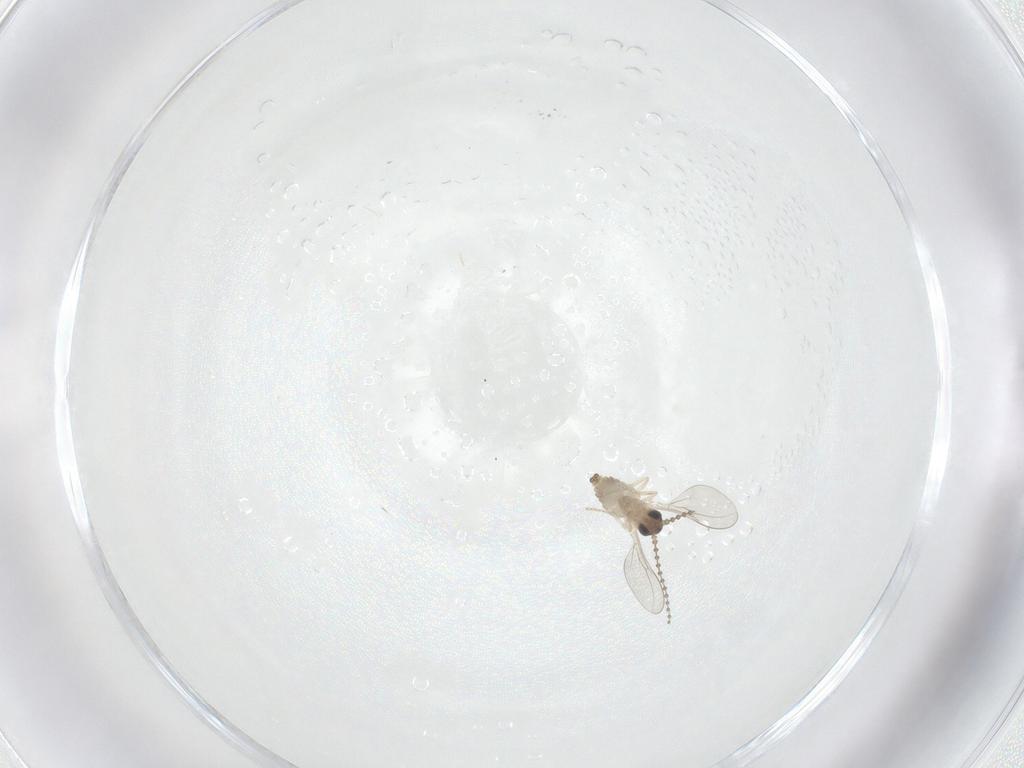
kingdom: Animalia
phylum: Arthropoda
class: Insecta
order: Diptera
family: Cecidomyiidae
